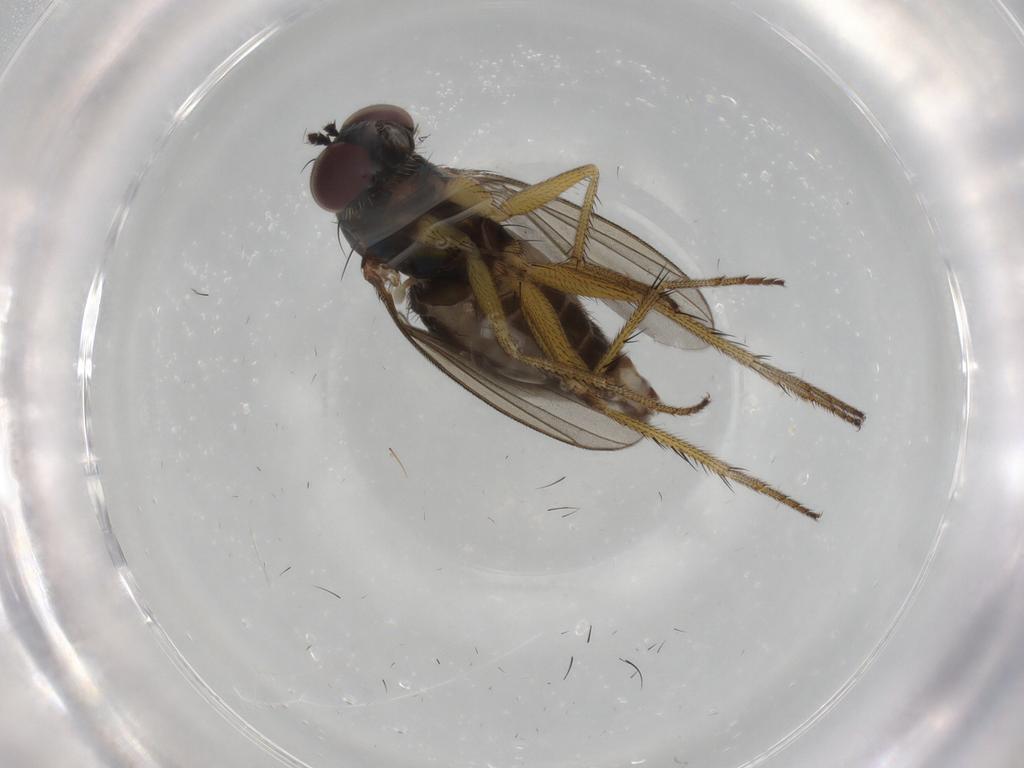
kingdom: Animalia
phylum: Arthropoda
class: Insecta
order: Diptera
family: Dolichopodidae
